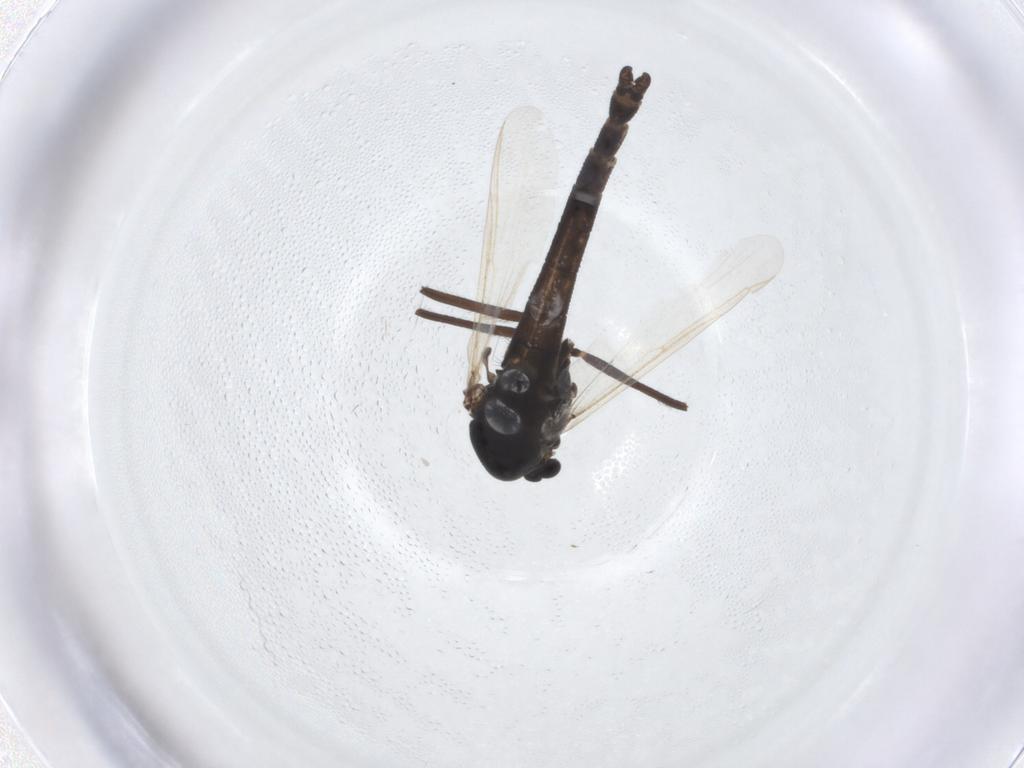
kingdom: Animalia
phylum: Arthropoda
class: Insecta
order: Diptera
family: Chironomidae
